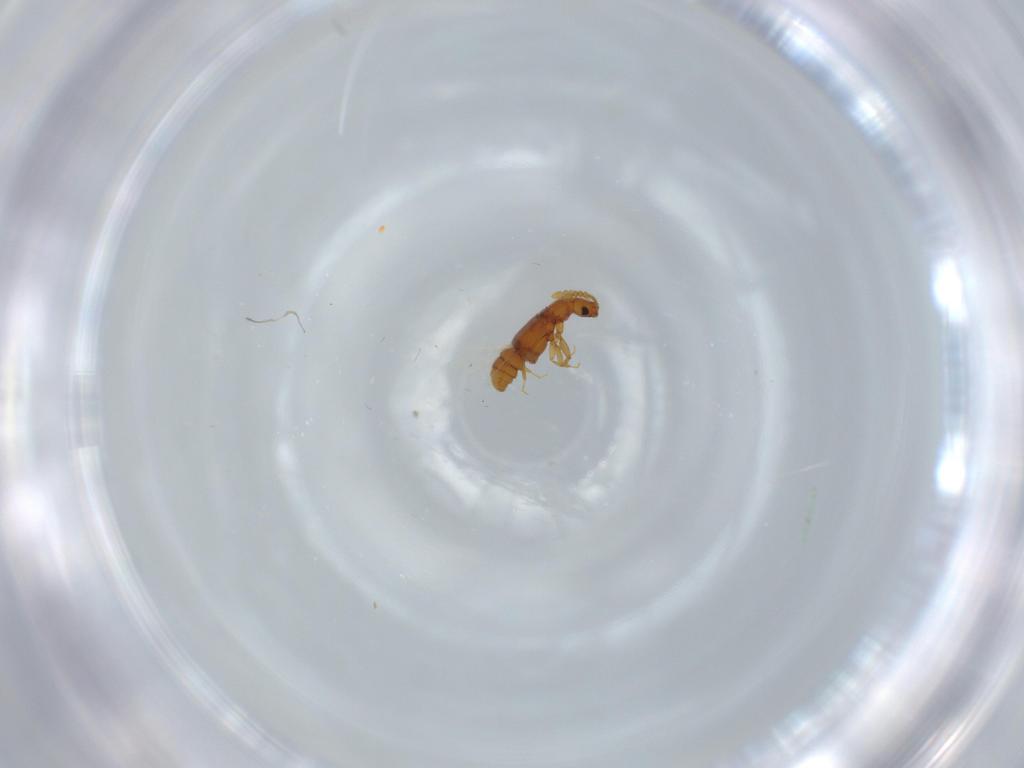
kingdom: Animalia
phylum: Arthropoda
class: Insecta
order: Coleoptera
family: Staphylinidae
